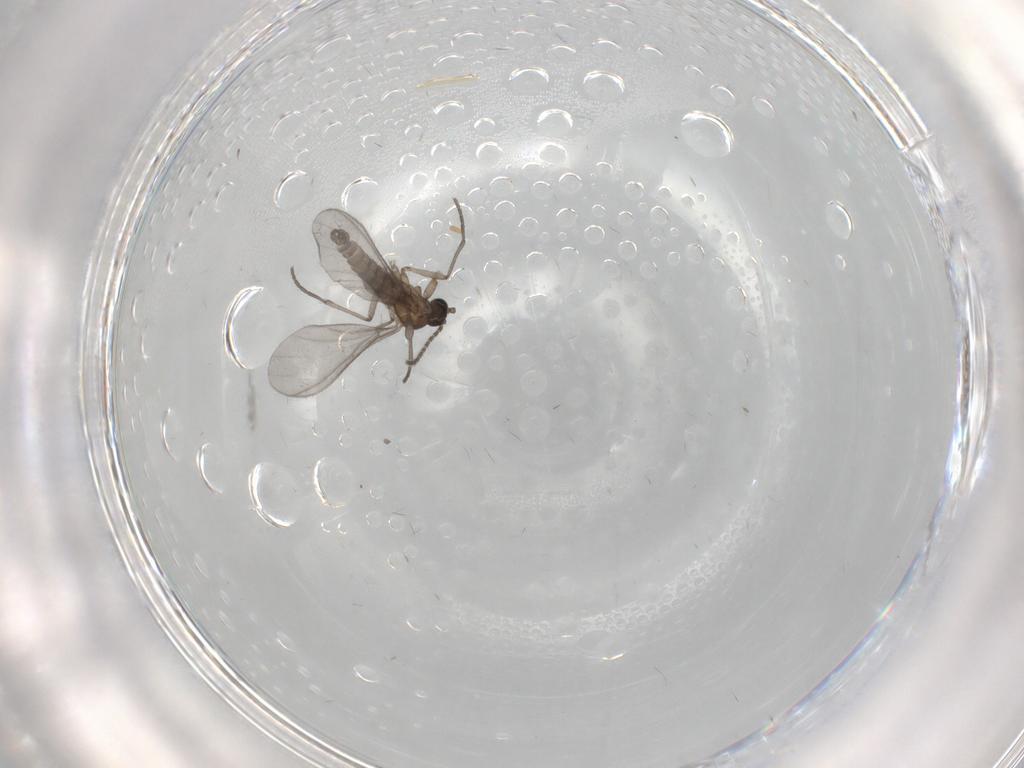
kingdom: Animalia
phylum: Arthropoda
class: Insecta
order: Diptera
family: Sciaridae
